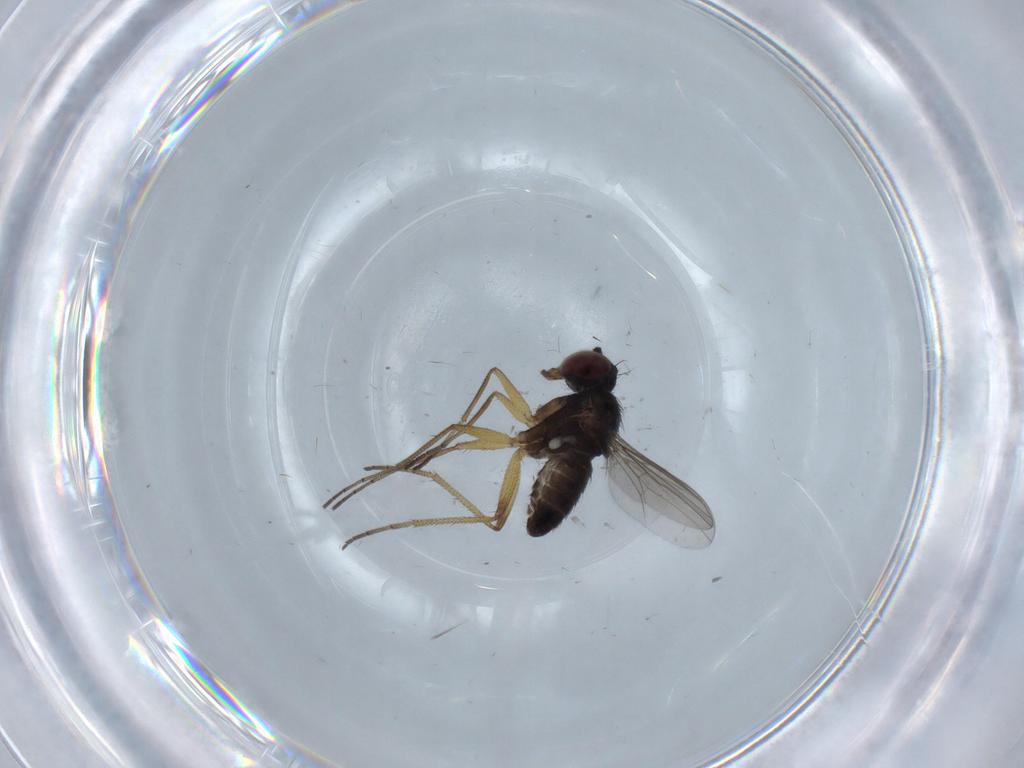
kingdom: Animalia
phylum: Arthropoda
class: Insecta
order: Diptera
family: Dolichopodidae
